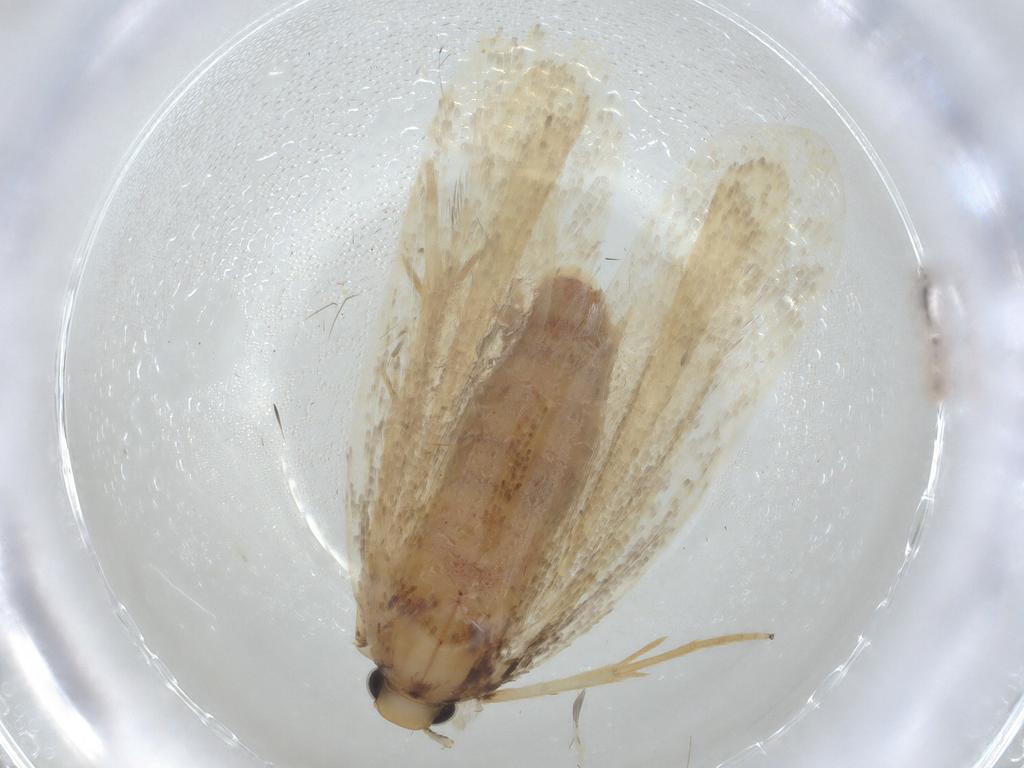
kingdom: Animalia
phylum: Arthropoda
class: Insecta
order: Lepidoptera
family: Lecithoceridae
